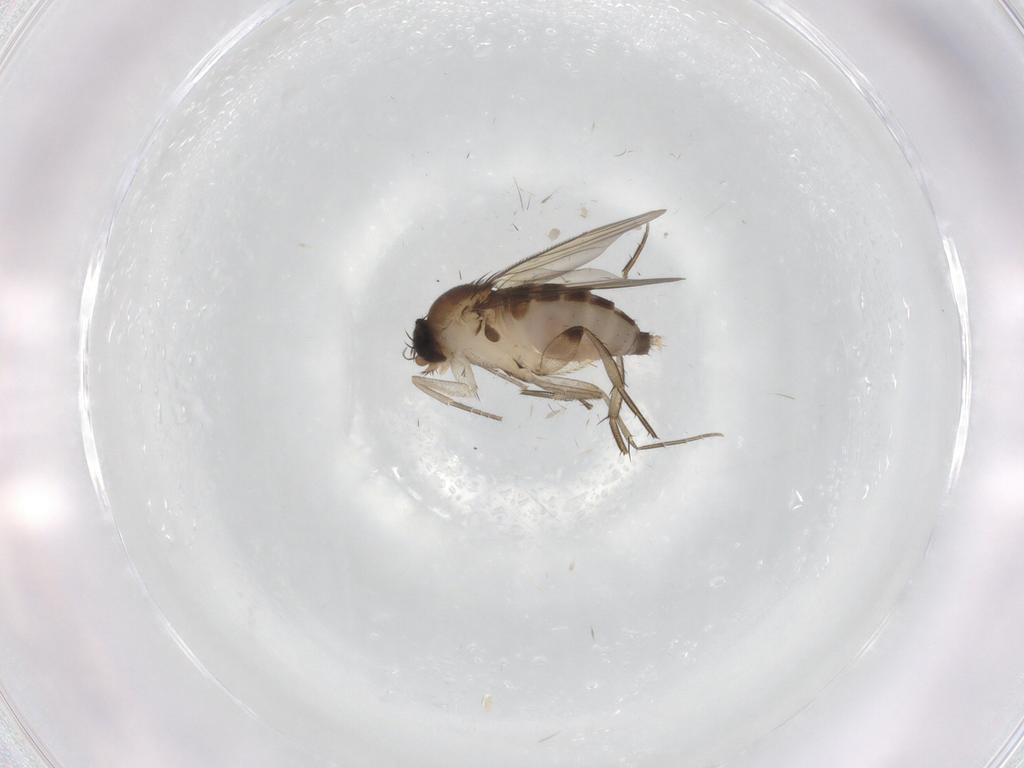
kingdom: Animalia
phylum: Arthropoda
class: Insecta
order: Diptera
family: Phoridae
